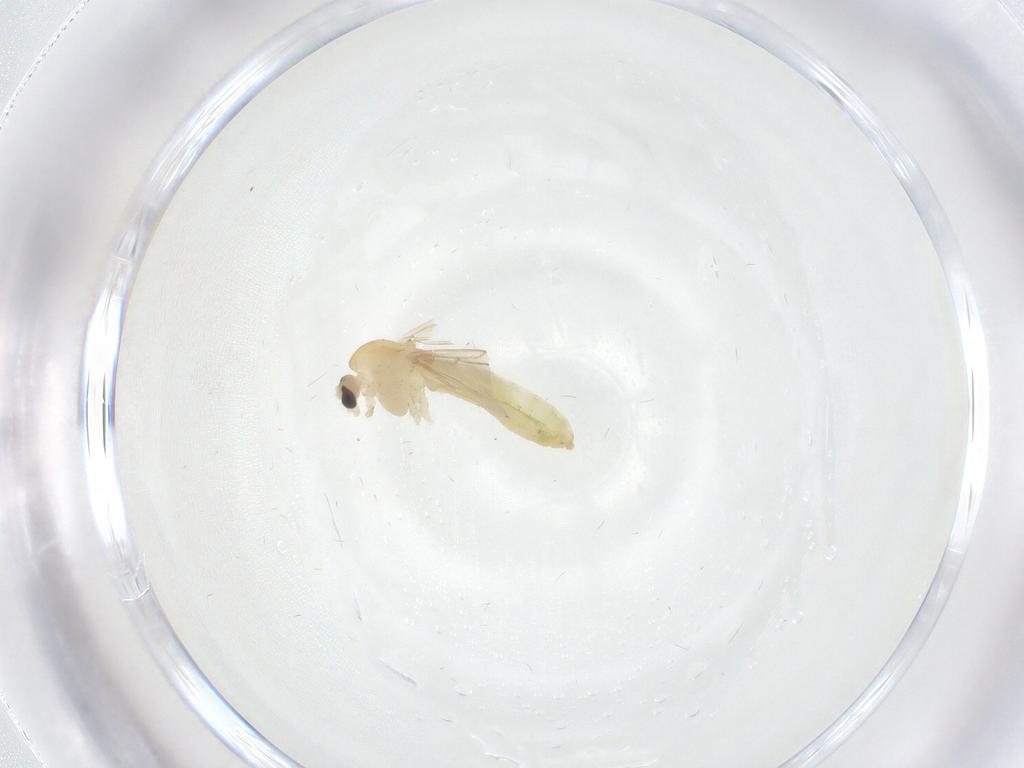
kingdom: Animalia
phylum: Arthropoda
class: Insecta
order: Diptera
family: Chironomidae
